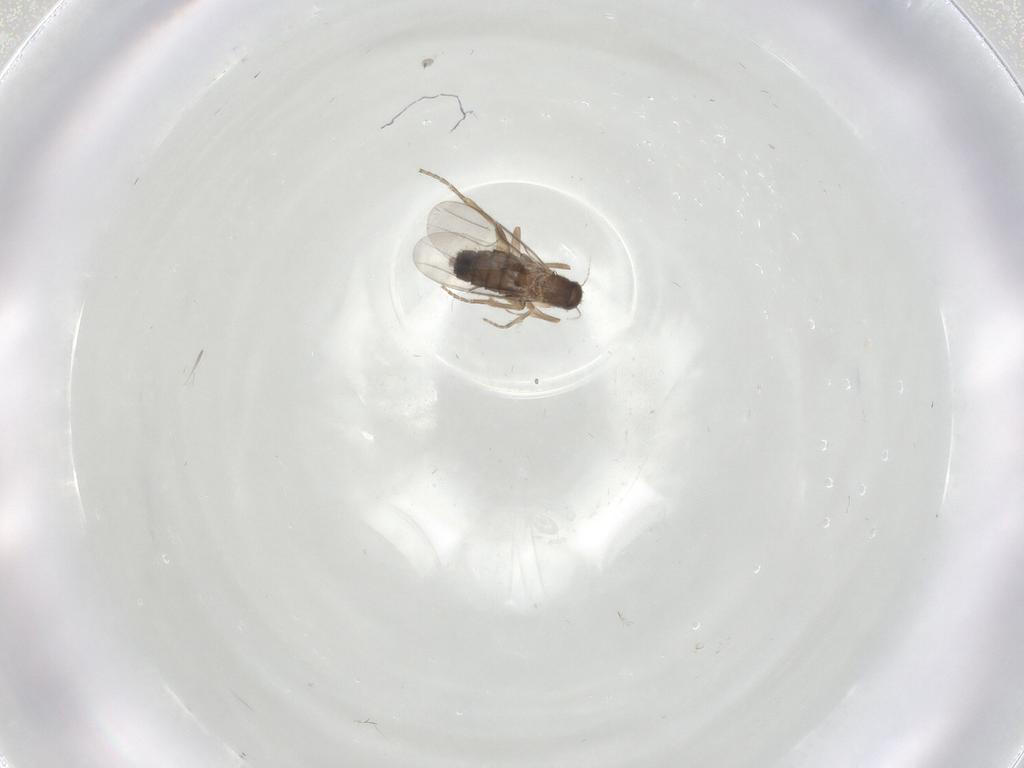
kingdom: Animalia
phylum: Arthropoda
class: Insecta
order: Diptera
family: Phoridae
